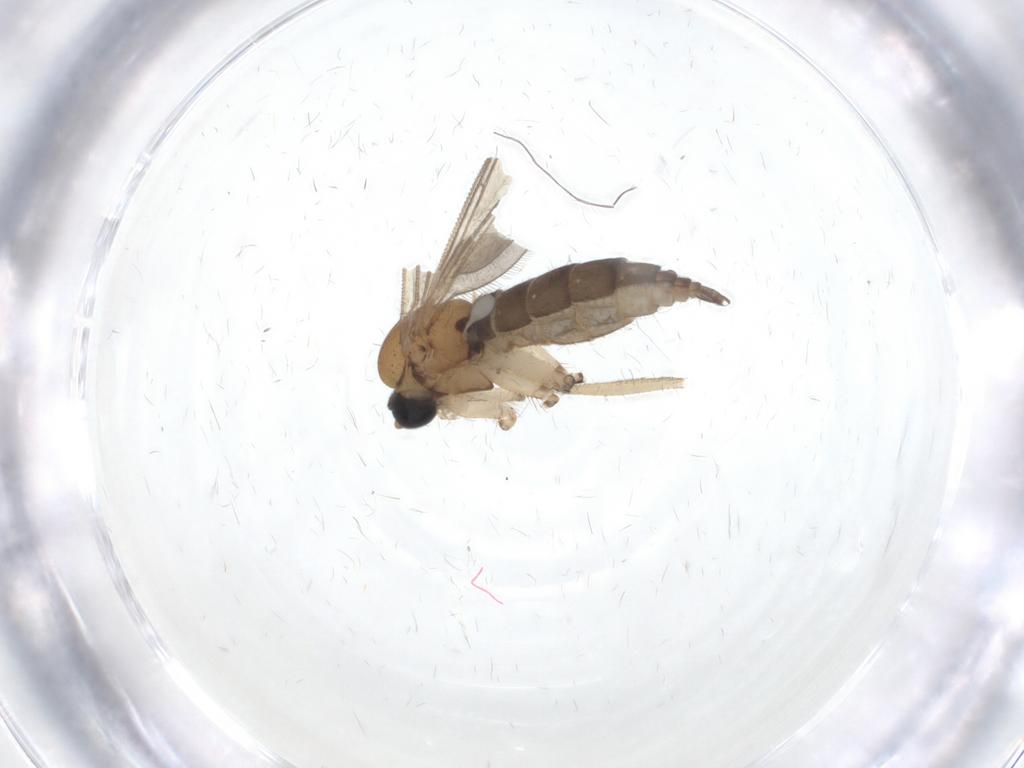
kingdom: Animalia
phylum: Arthropoda
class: Insecta
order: Diptera
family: Sciaridae
